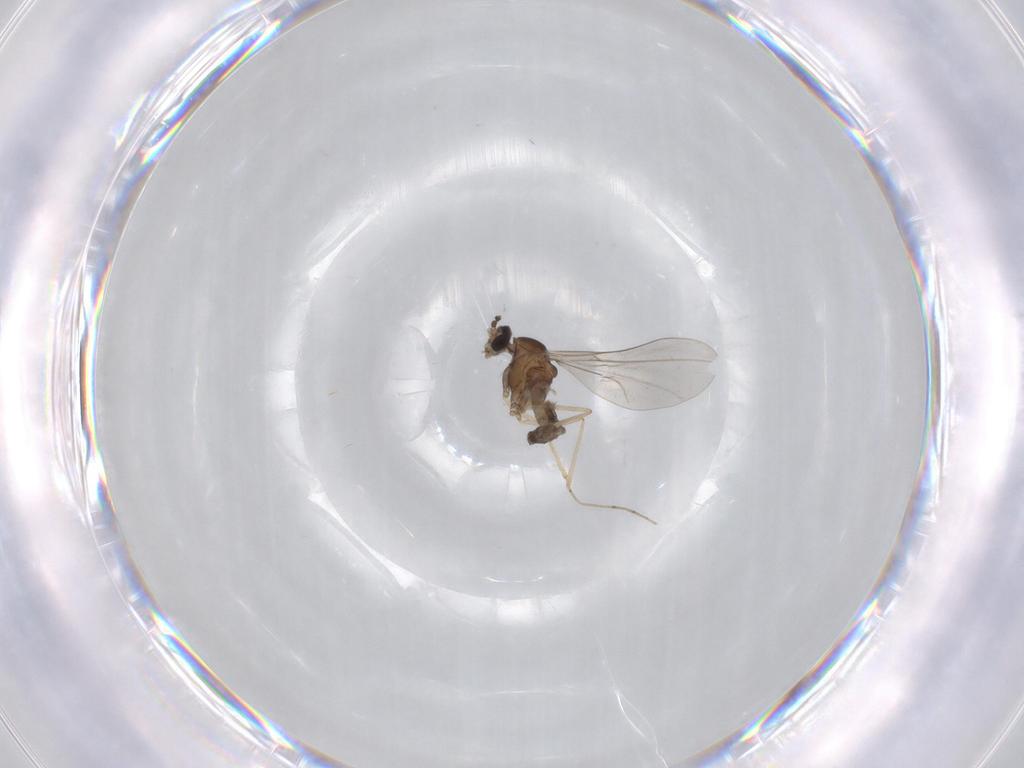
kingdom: Animalia
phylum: Arthropoda
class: Insecta
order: Diptera
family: Cecidomyiidae
